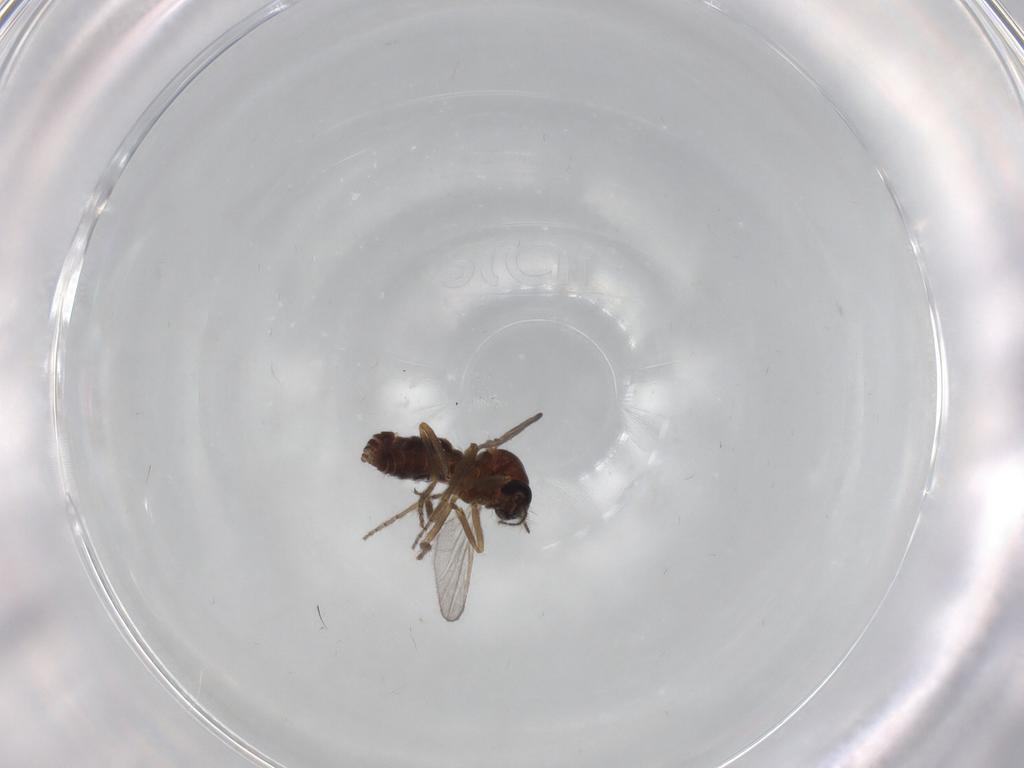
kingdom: Animalia
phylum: Arthropoda
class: Insecta
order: Diptera
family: Ceratopogonidae
